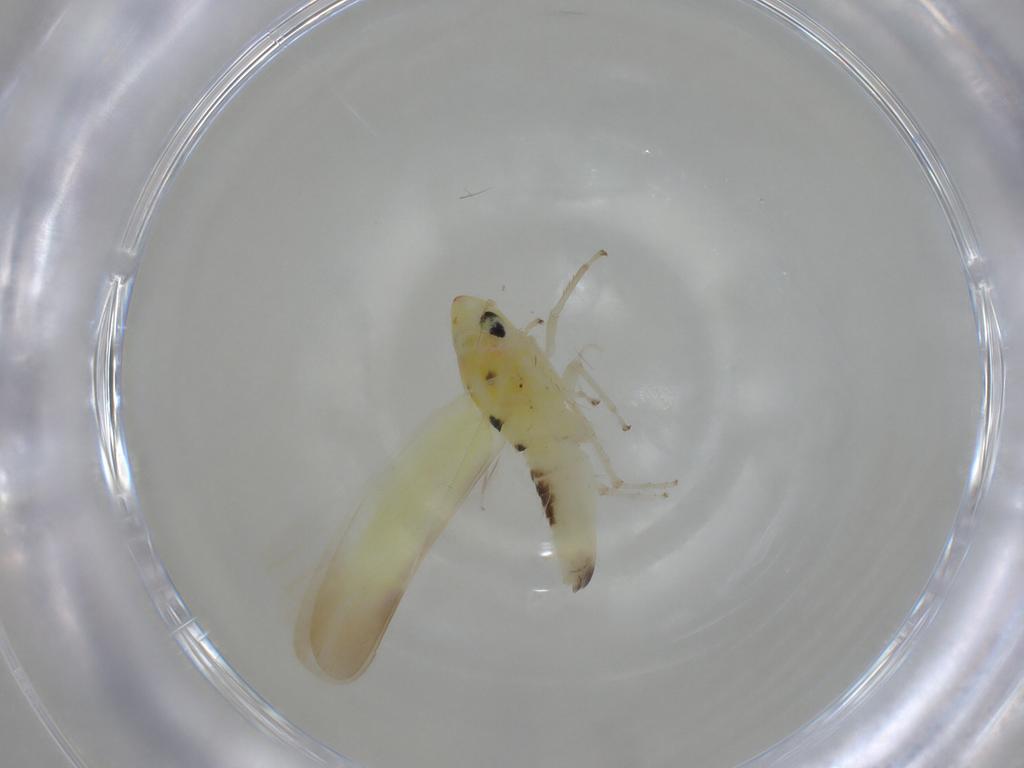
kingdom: Animalia
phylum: Arthropoda
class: Insecta
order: Hemiptera
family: Cicadellidae
